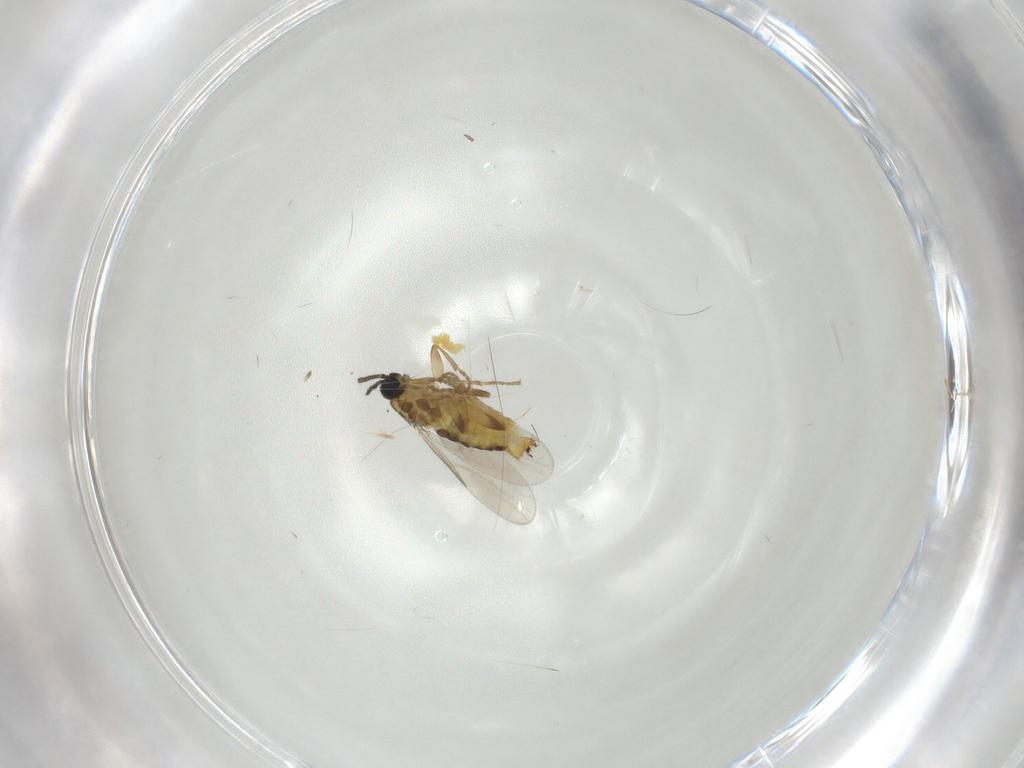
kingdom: Animalia
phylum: Arthropoda
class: Insecta
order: Diptera
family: Scatopsidae
